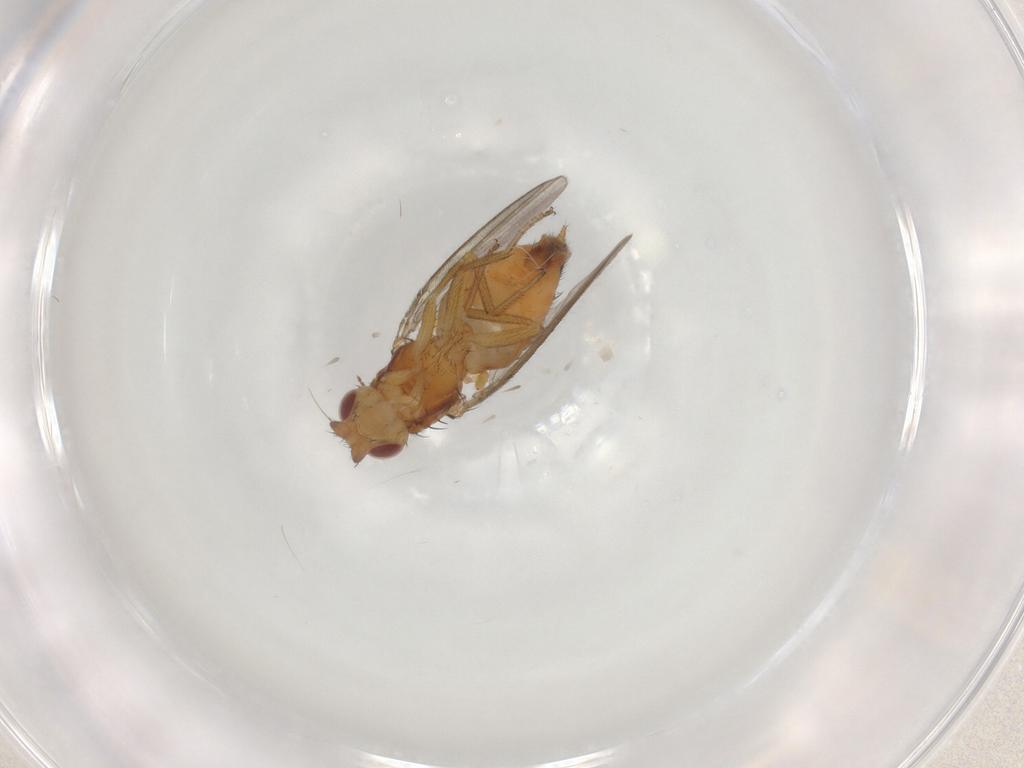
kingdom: Animalia
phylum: Arthropoda
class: Insecta
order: Diptera
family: Milichiidae
